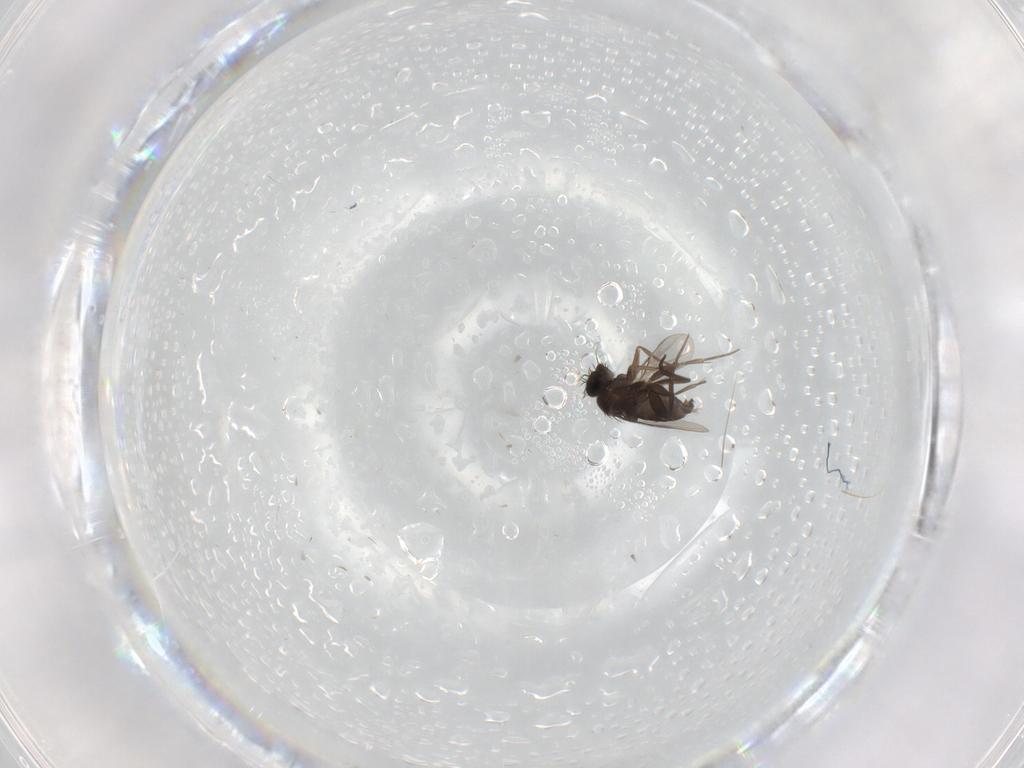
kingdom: Animalia
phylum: Arthropoda
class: Insecta
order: Diptera
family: Phoridae
